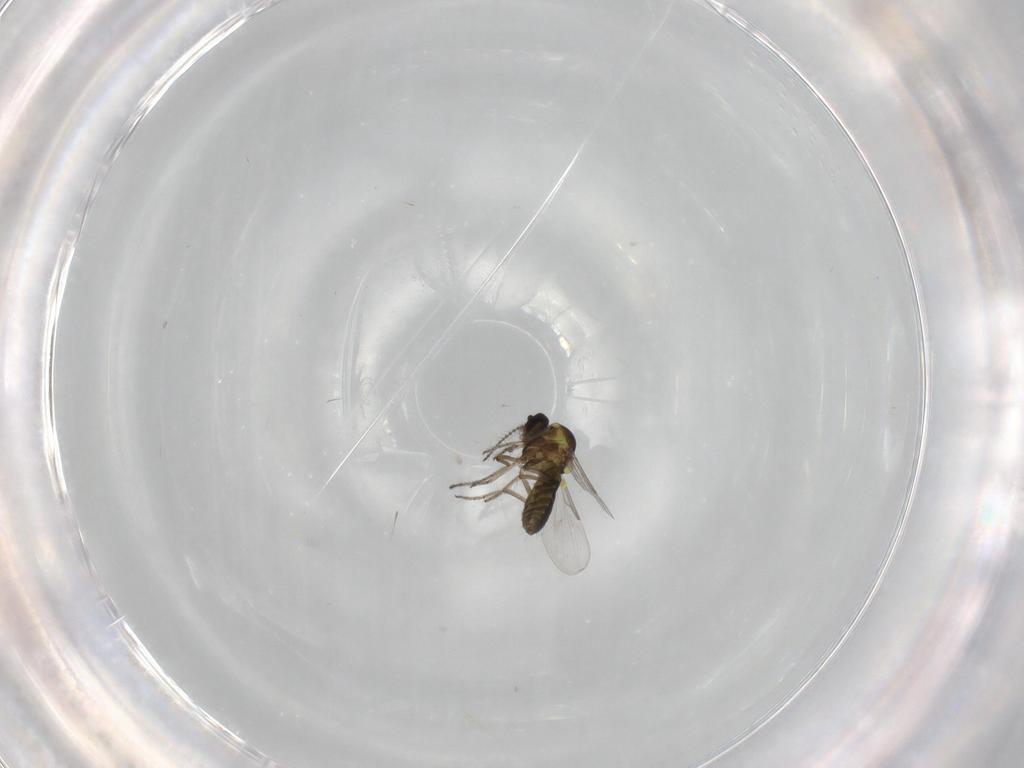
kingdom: Animalia
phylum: Arthropoda
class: Insecta
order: Diptera
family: Ceratopogonidae
